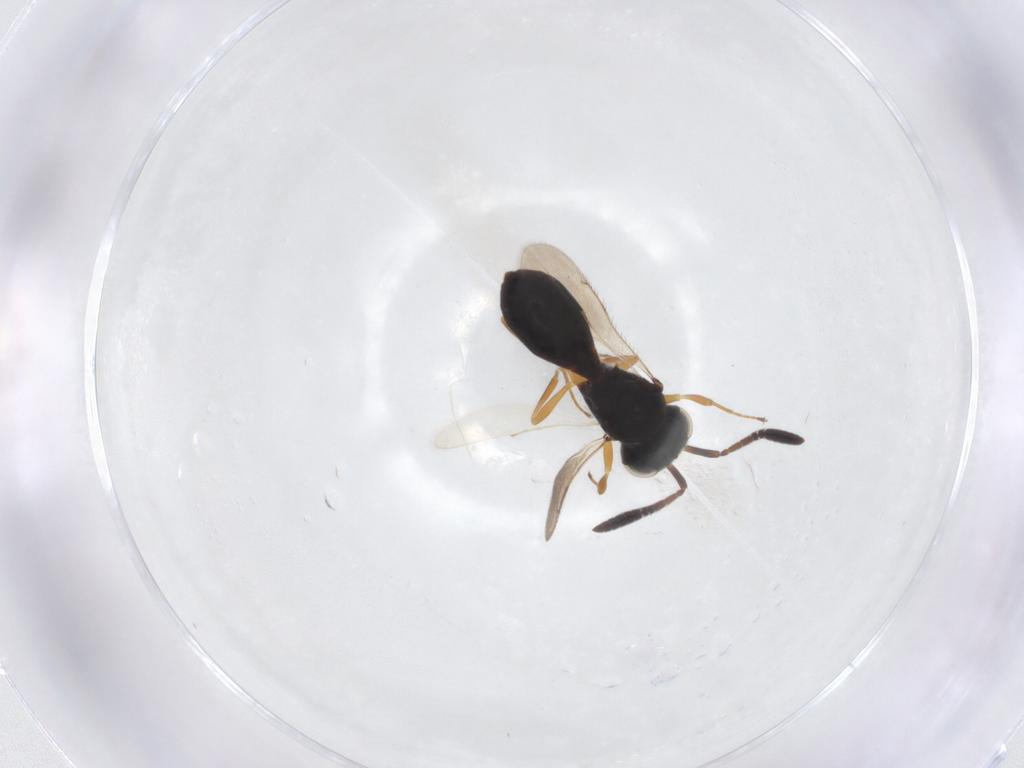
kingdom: Animalia
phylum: Arthropoda
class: Insecta
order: Hymenoptera
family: Scelionidae
